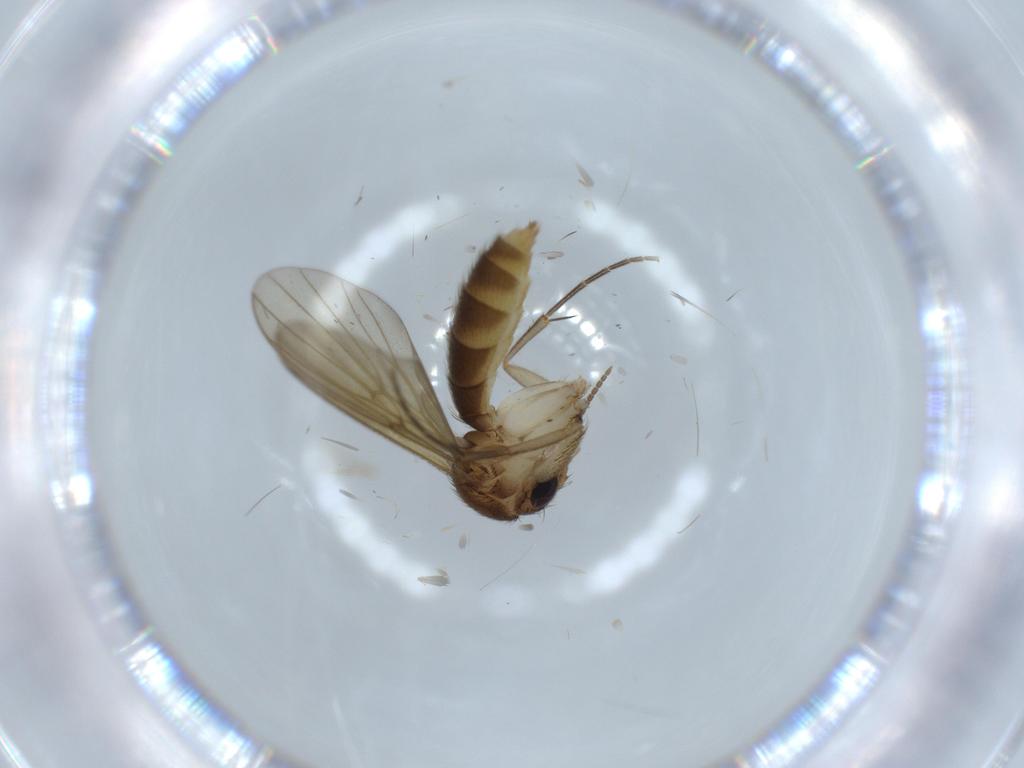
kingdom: Animalia
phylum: Arthropoda
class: Insecta
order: Diptera
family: Mycetophilidae
